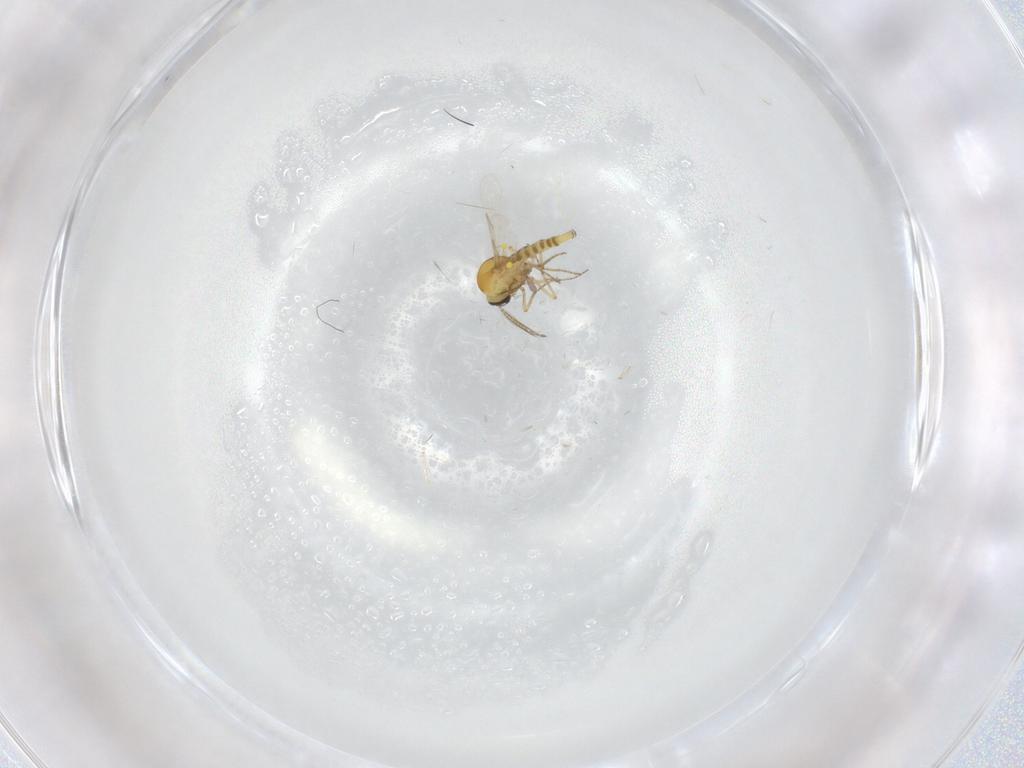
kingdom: Animalia
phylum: Arthropoda
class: Insecta
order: Diptera
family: Ceratopogonidae
